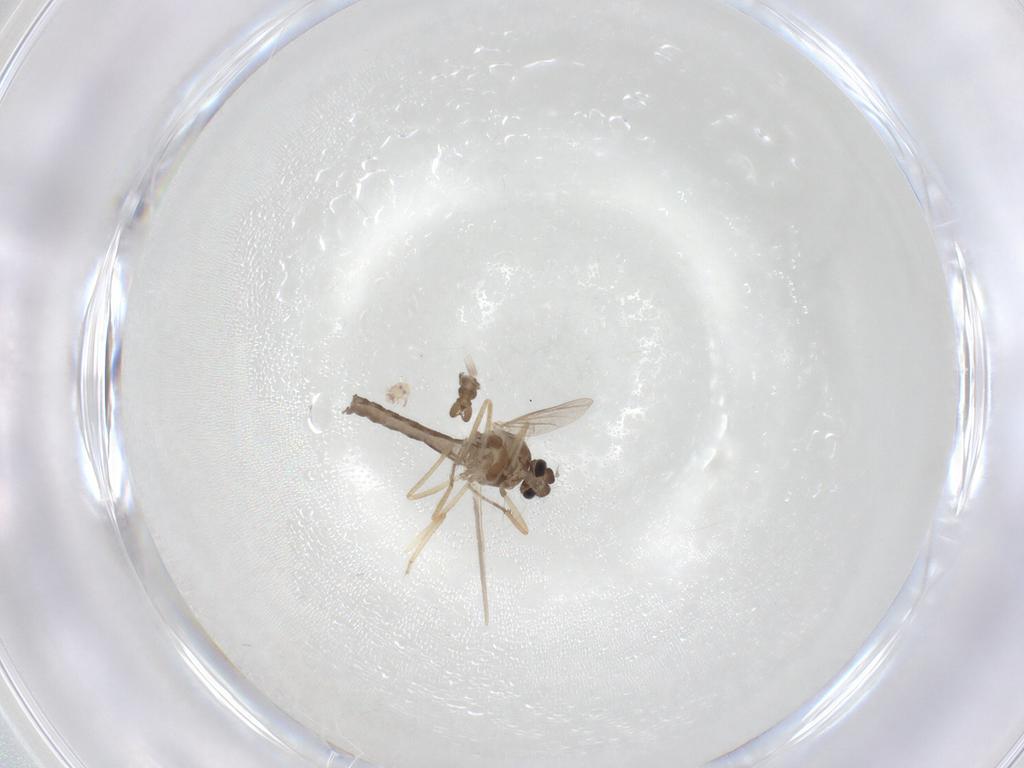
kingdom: Animalia
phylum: Arthropoda
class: Insecta
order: Diptera
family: Ceratopogonidae
